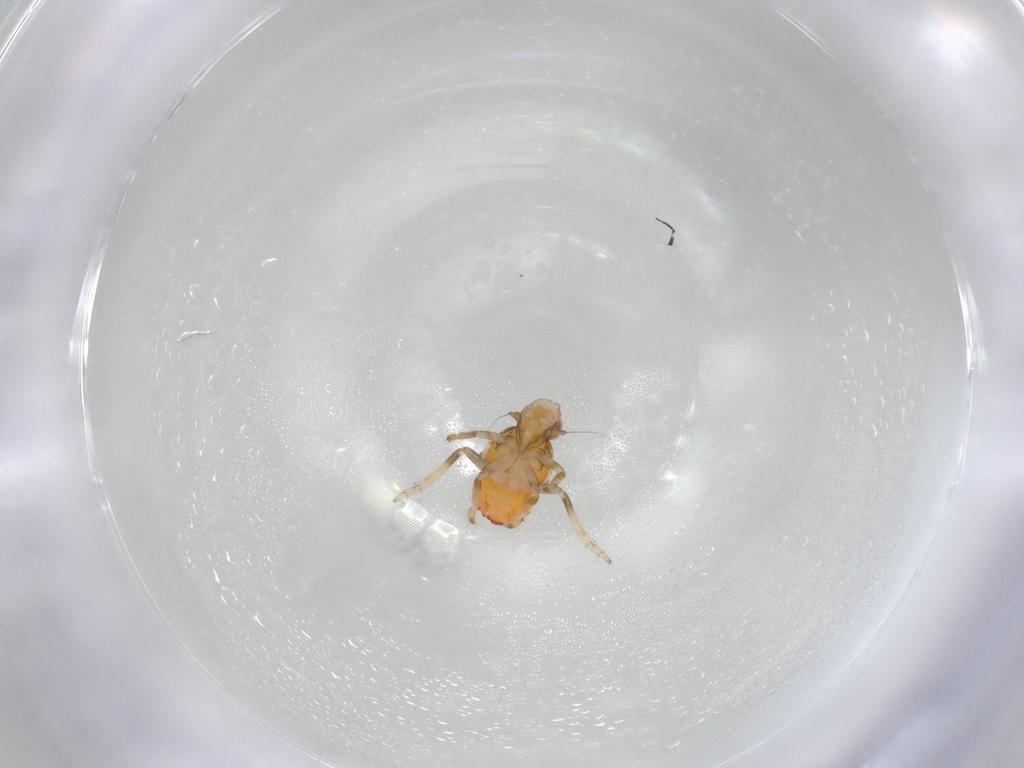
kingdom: Animalia
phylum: Arthropoda
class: Insecta
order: Hemiptera
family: Tropiduchidae
